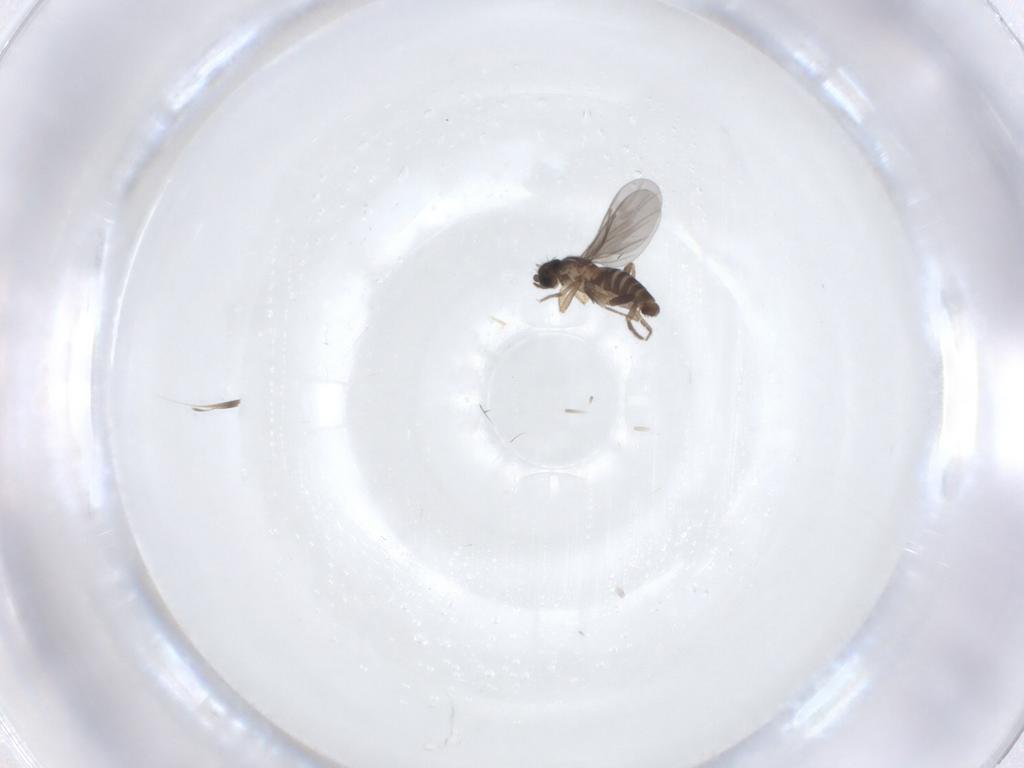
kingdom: Animalia
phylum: Arthropoda
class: Insecta
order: Diptera
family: Cecidomyiidae
